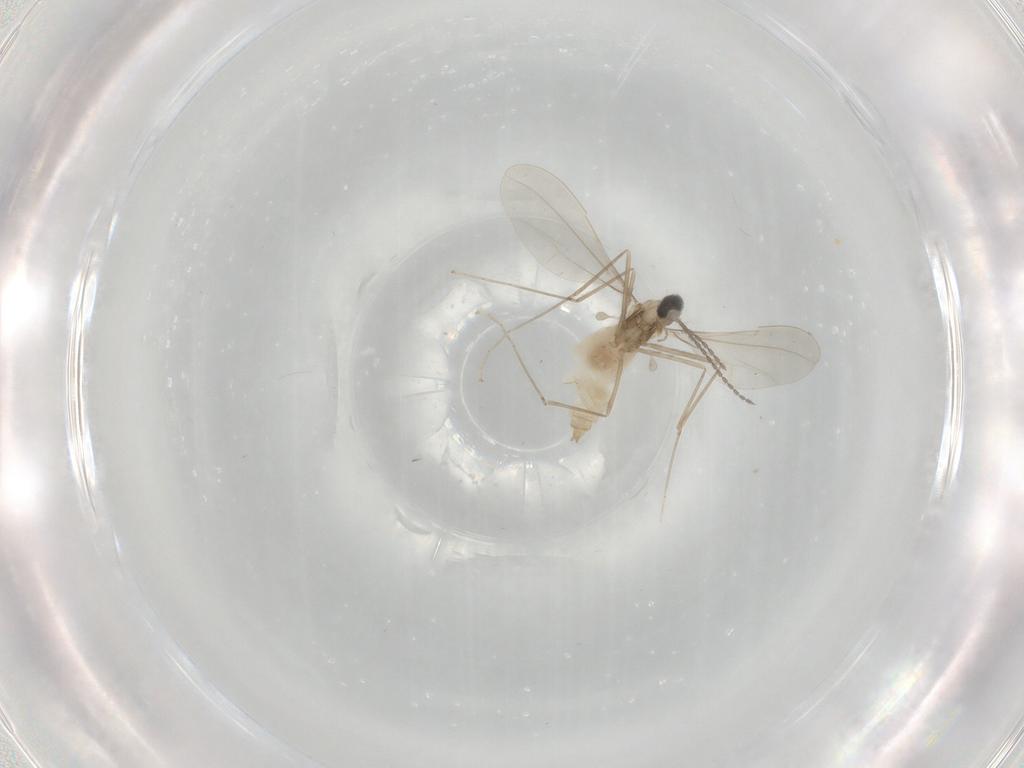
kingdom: Animalia
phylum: Arthropoda
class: Insecta
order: Diptera
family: Cecidomyiidae
